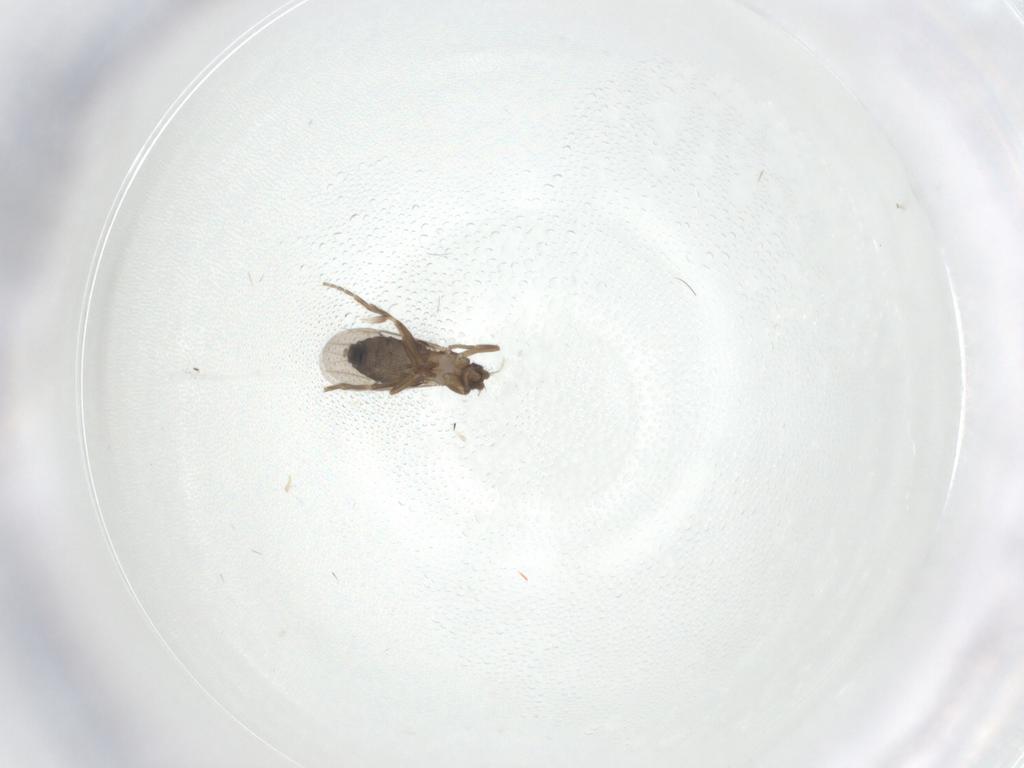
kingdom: Animalia
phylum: Arthropoda
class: Insecta
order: Diptera
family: Phoridae
